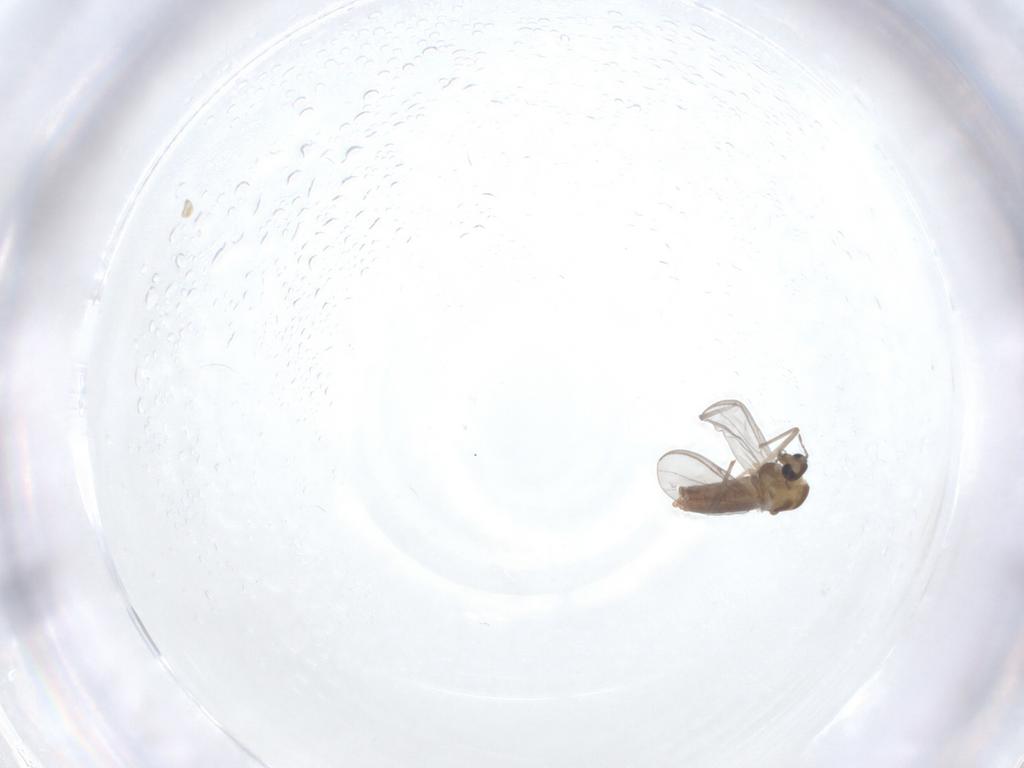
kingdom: Animalia
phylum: Arthropoda
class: Insecta
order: Diptera
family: Chironomidae
